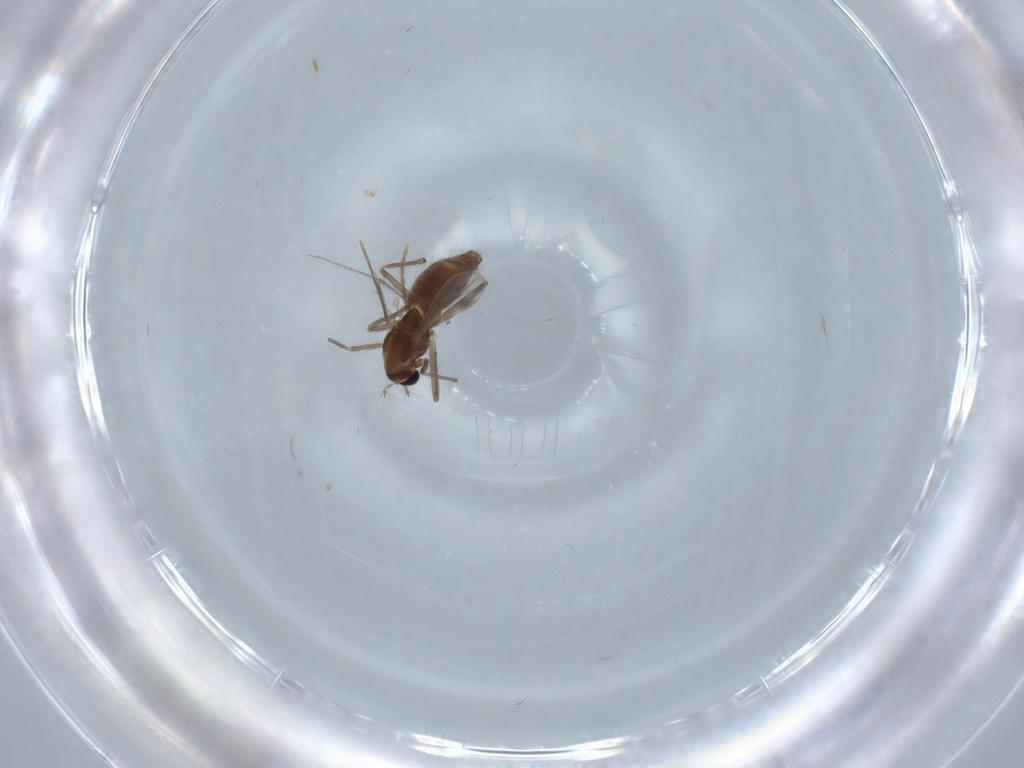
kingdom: Animalia
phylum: Arthropoda
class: Insecta
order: Diptera
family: Chironomidae
